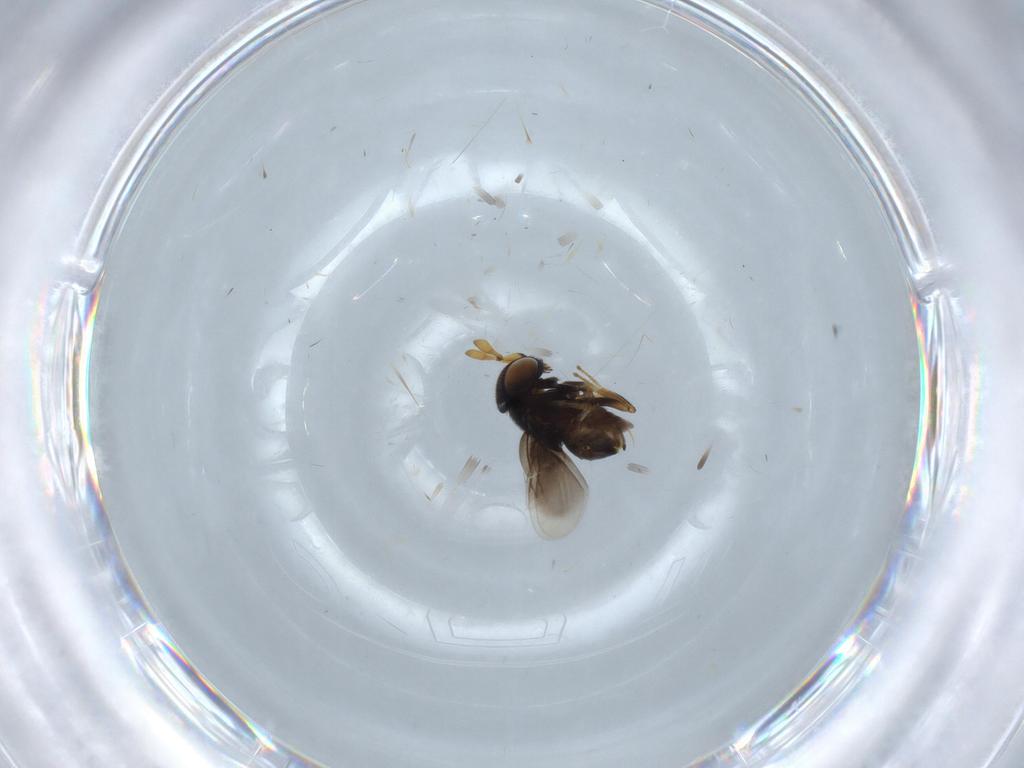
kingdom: Animalia
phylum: Arthropoda
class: Insecta
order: Hymenoptera
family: Encyrtidae
